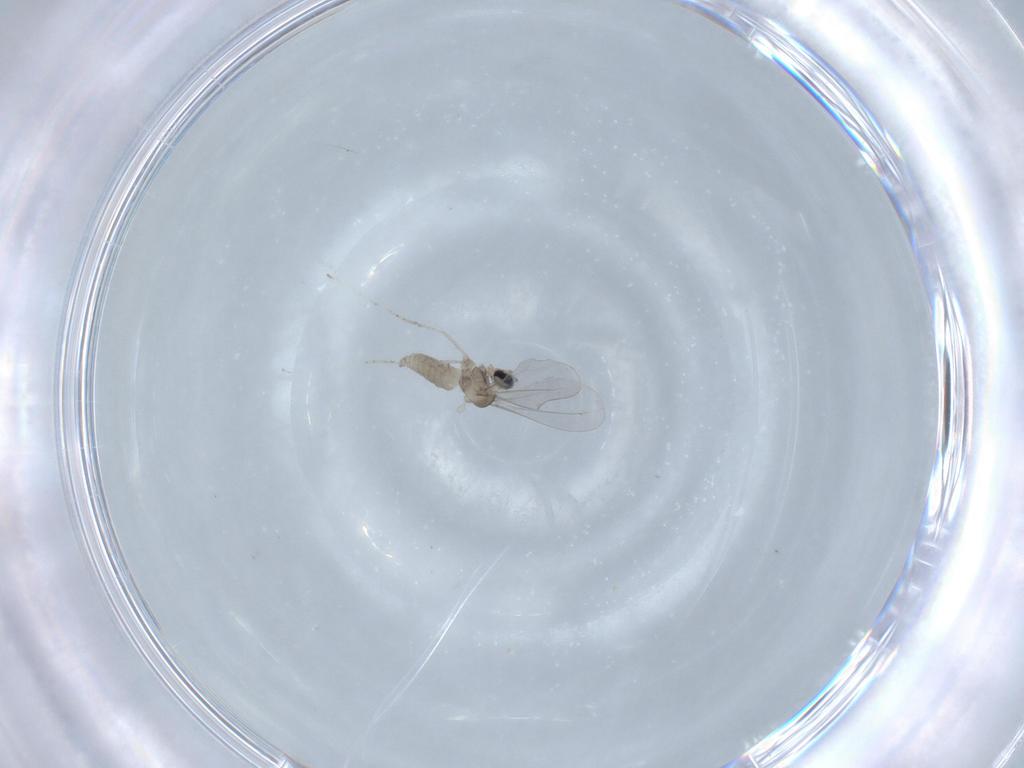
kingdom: Animalia
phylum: Arthropoda
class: Insecta
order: Diptera
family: Cecidomyiidae
